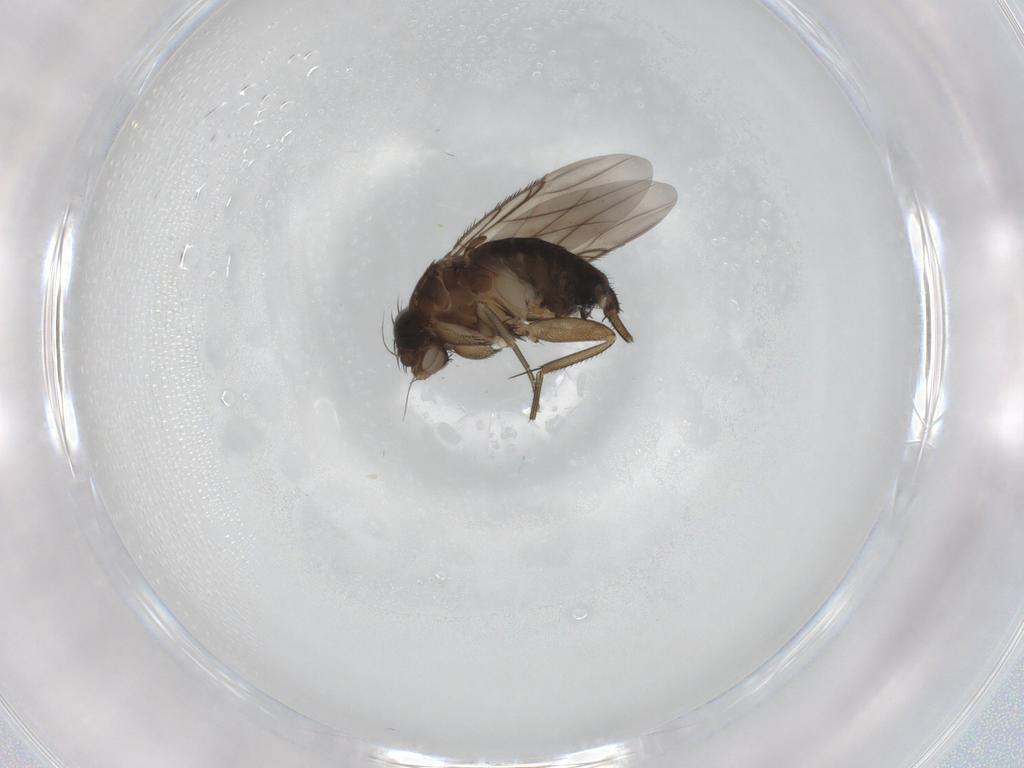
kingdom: Animalia
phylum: Arthropoda
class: Insecta
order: Diptera
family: Phoridae
